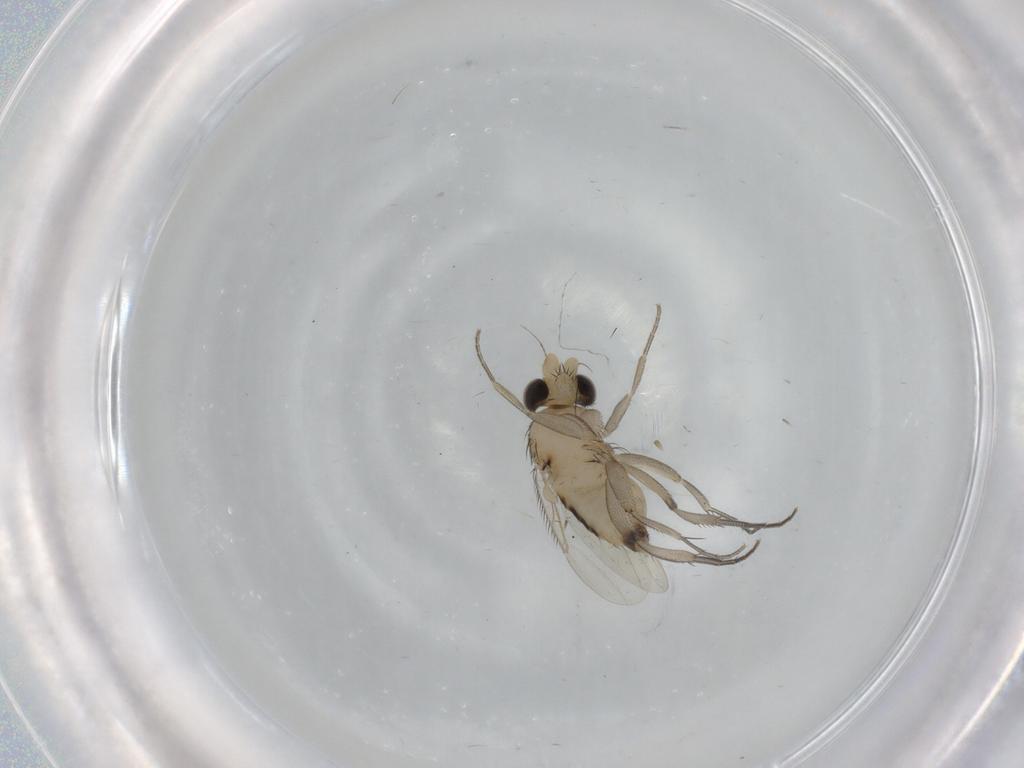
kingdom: Animalia
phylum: Arthropoda
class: Insecta
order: Diptera
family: Phoridae
